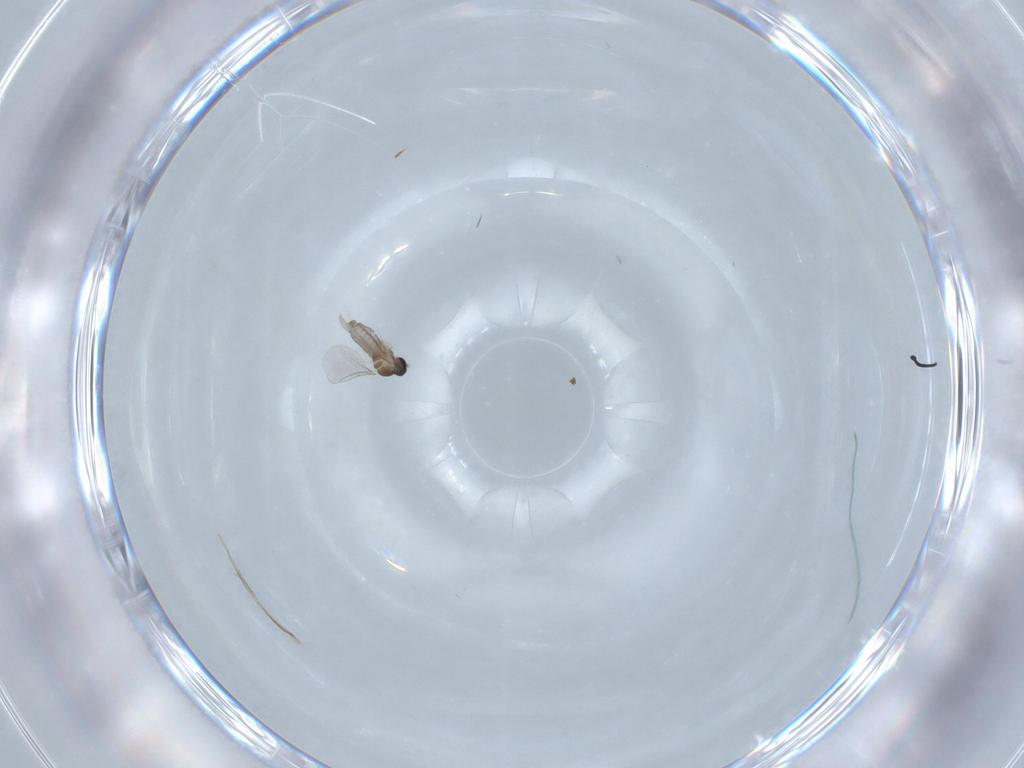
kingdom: Animalia
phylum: Arthropoda
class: Insecta
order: Diptera
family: Cecidomyiidae
